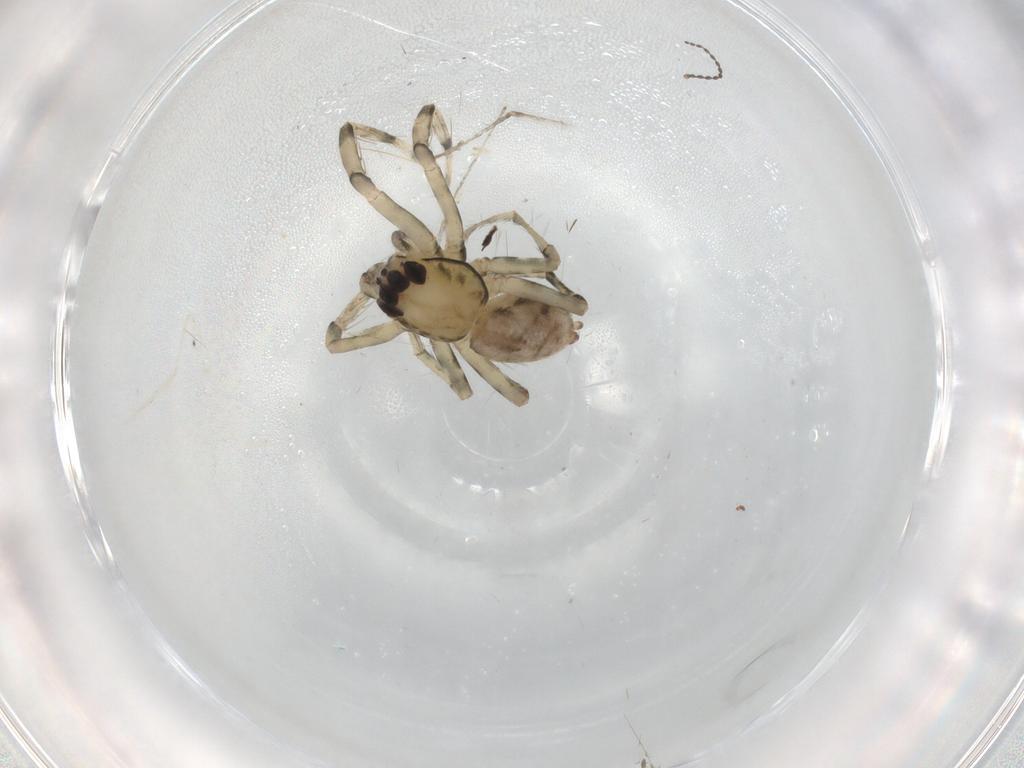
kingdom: Animalia
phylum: Arthropoda
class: Arachnida
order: Araneae
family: Senoculidae
